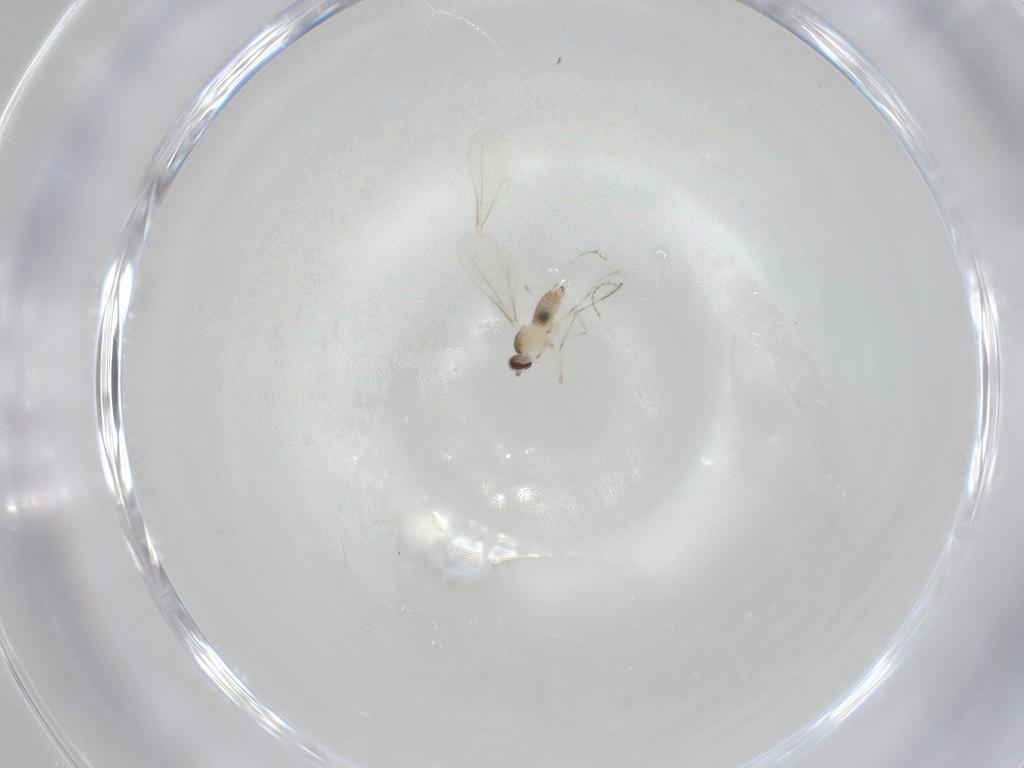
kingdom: Animalia
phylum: Arthropoda
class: Insecta
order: Diptera
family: Cecidomyiidae
